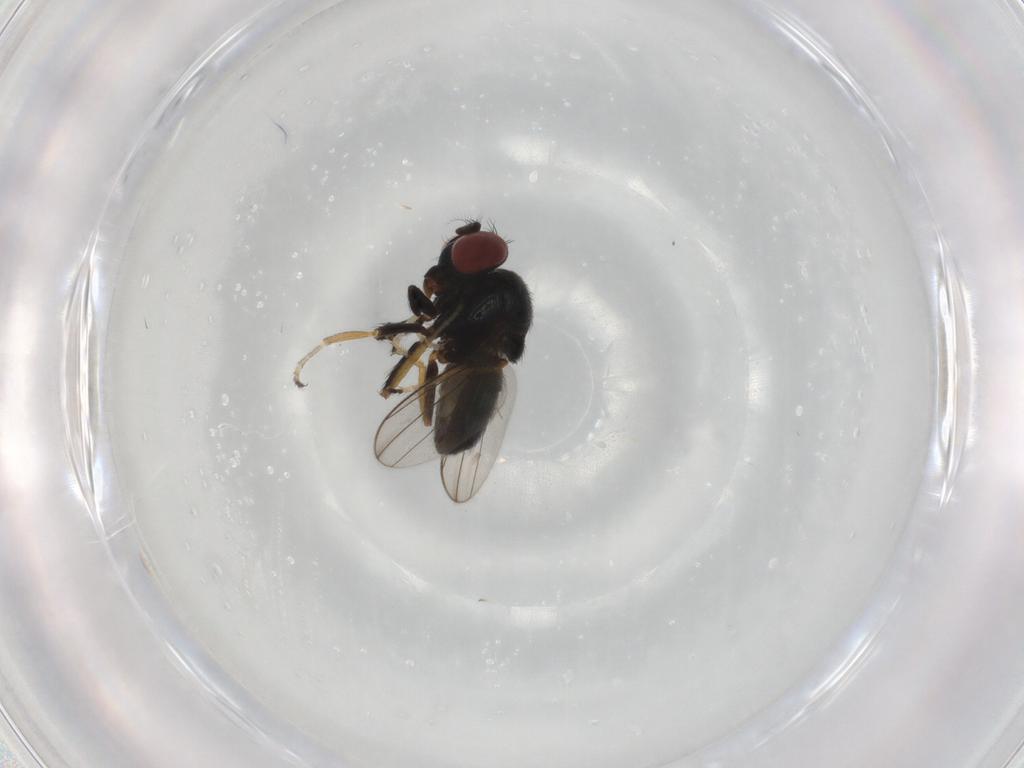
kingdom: Animalia
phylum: Arthropoda
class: Insecta
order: Diptera
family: Ephydridae
